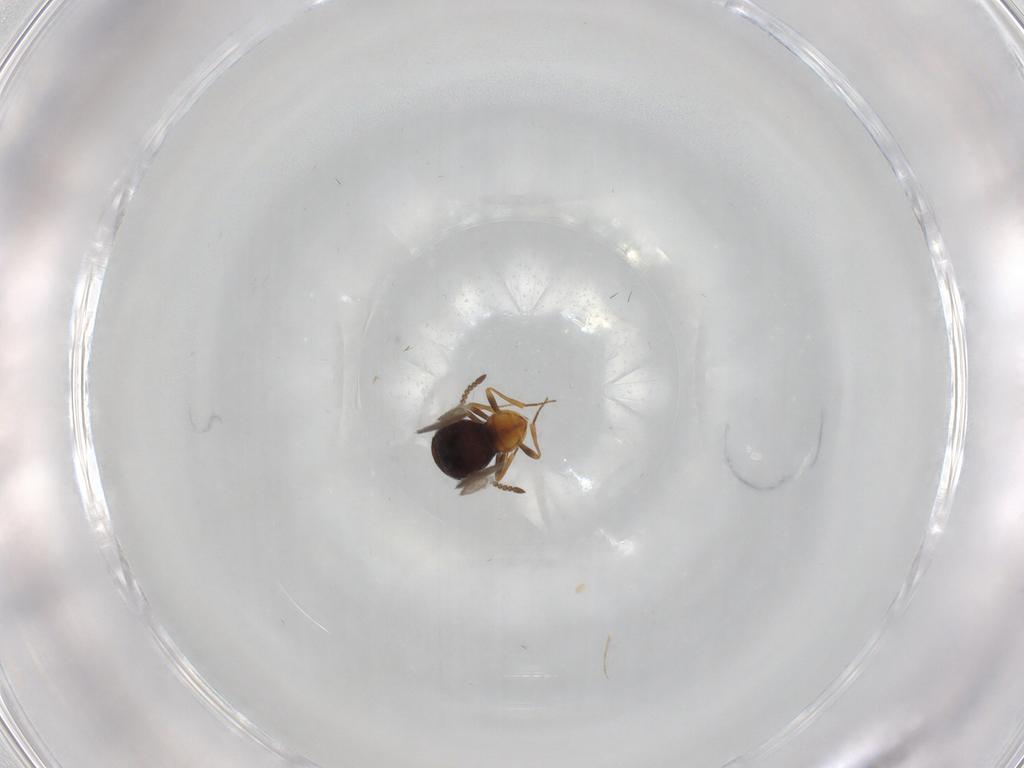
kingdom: Animalia
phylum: Arthropoda
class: Insecta
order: Hymenoptera
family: Scelionidae
